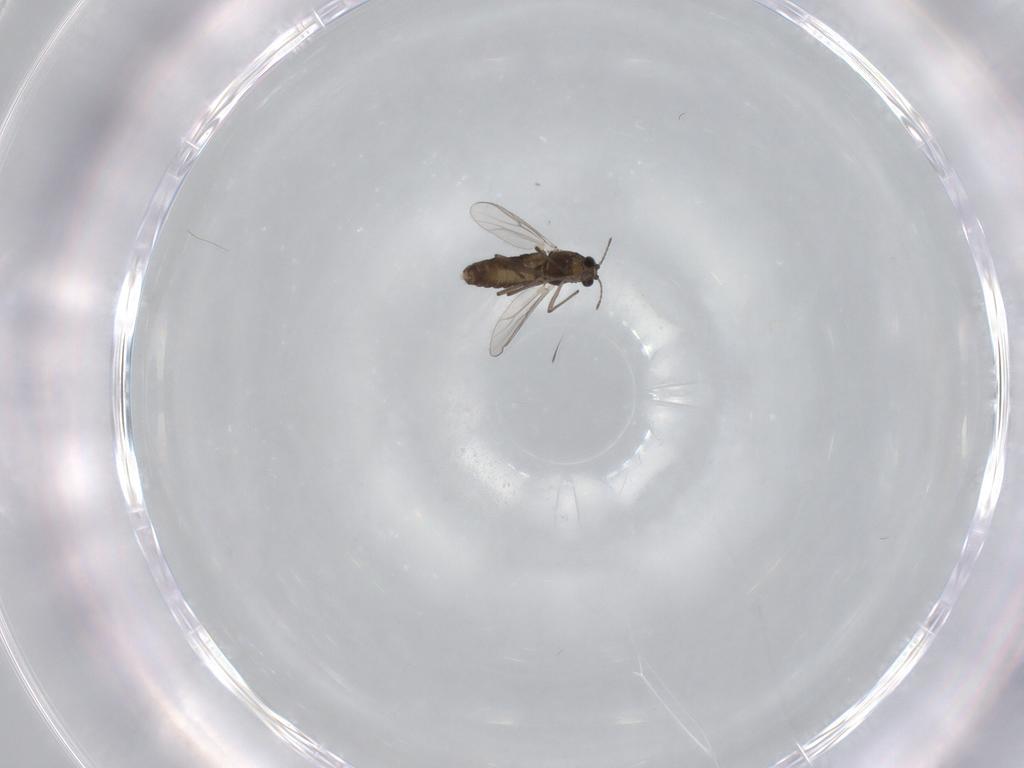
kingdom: Animalia
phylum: Arthropoda
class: Insecta
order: Diptera
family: Chironomidae
